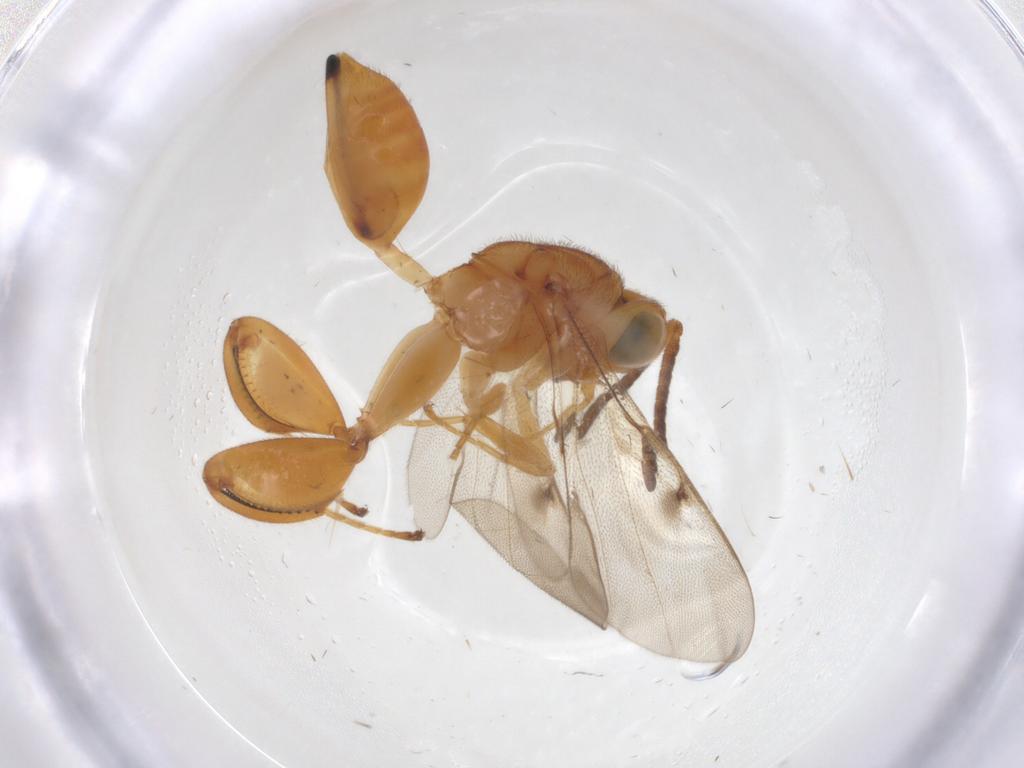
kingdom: Animalia
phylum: Arthropoda
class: Insecta
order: Hymenoptera
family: Chalcididae
